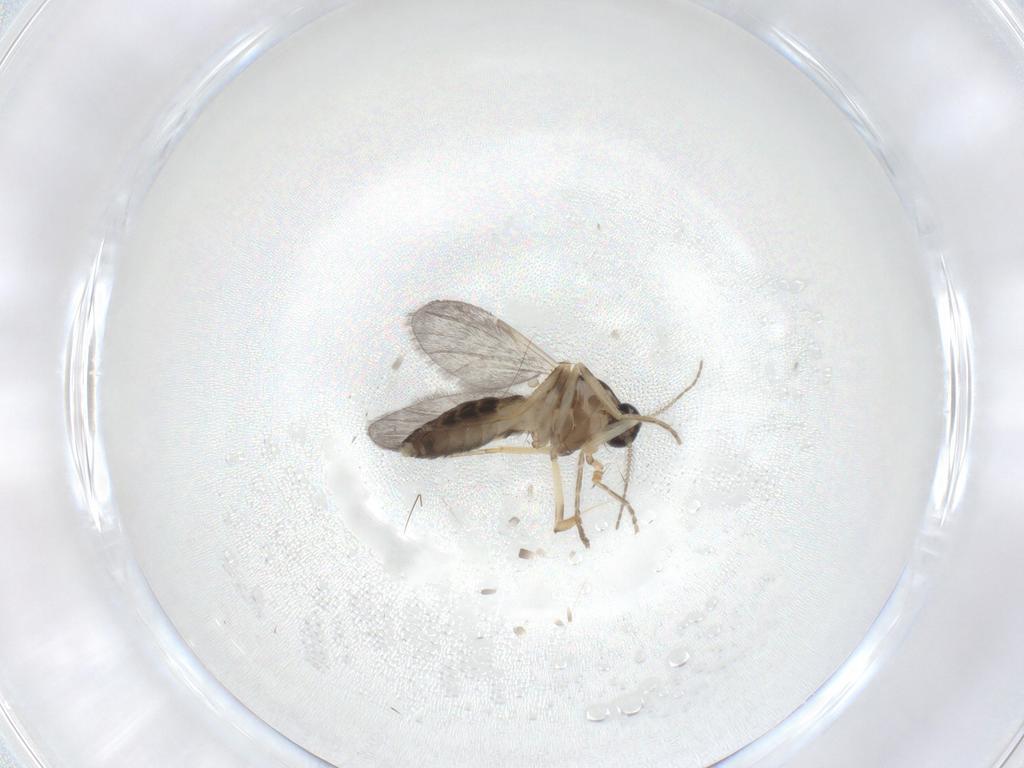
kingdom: Animalia
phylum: Arthropoda
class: Insecta
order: Diptera
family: Ceratopogonidae
